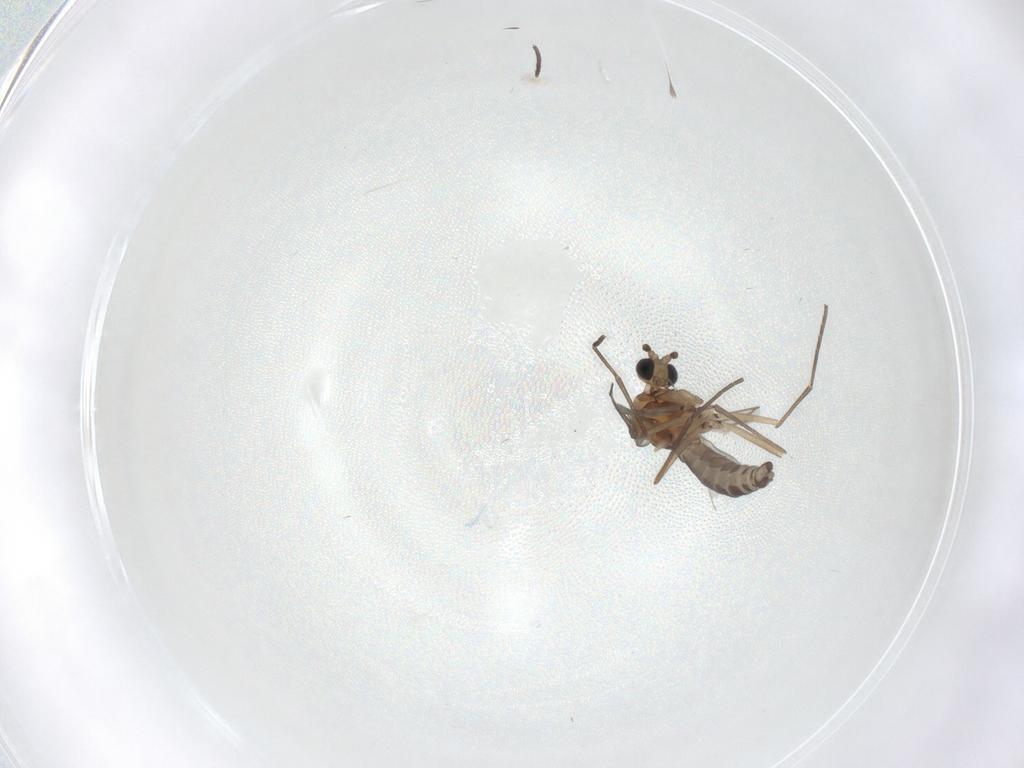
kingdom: Animalia
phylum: Arthropoda
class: Insecta
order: Diptera
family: Sciaridae
